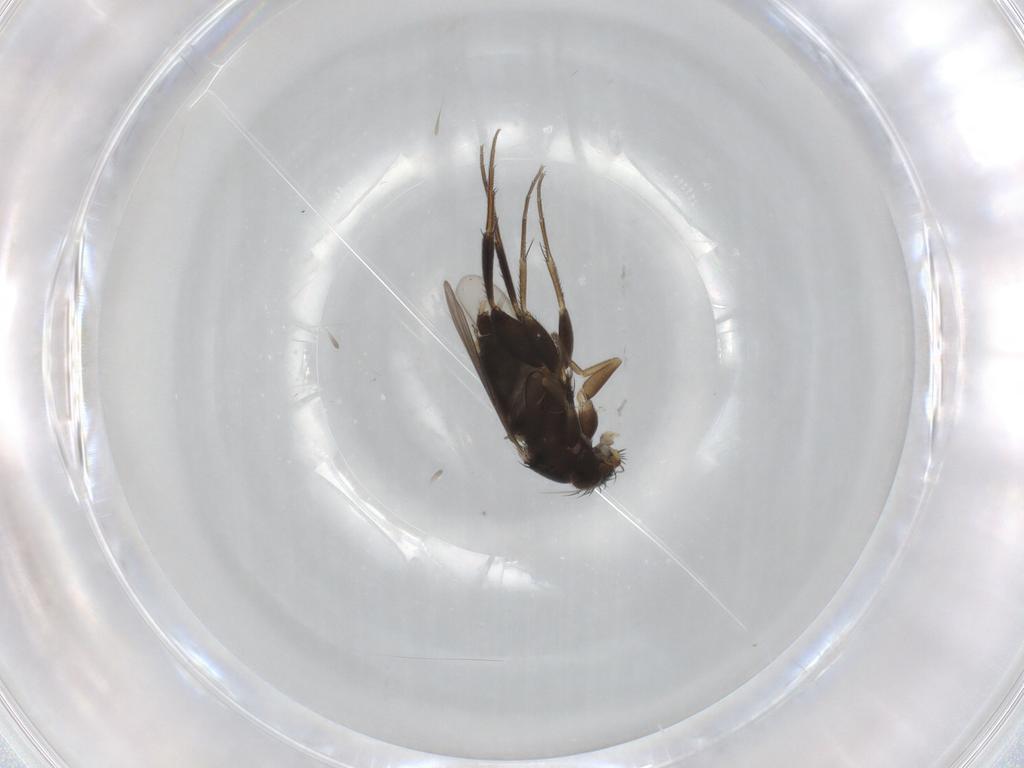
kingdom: Animalia
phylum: Arthropoda
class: Insecta
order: Diptera
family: Phoridae
